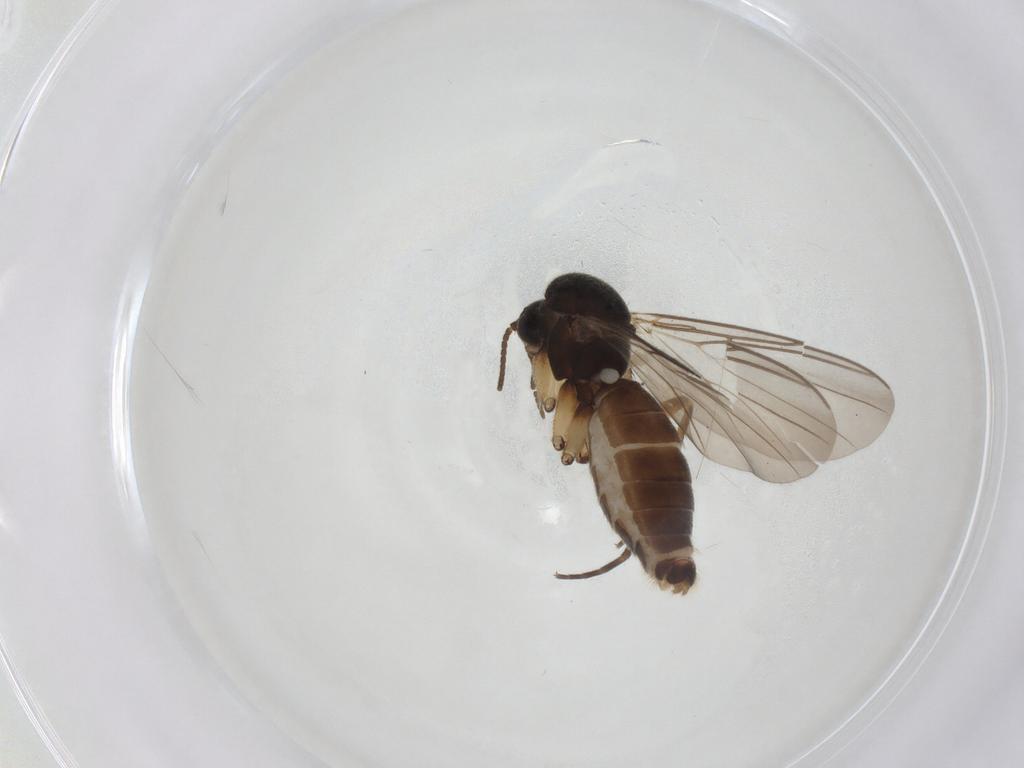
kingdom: Animalia
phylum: Arthropoda
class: Insecta
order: Diptera
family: Mycetophilidae
